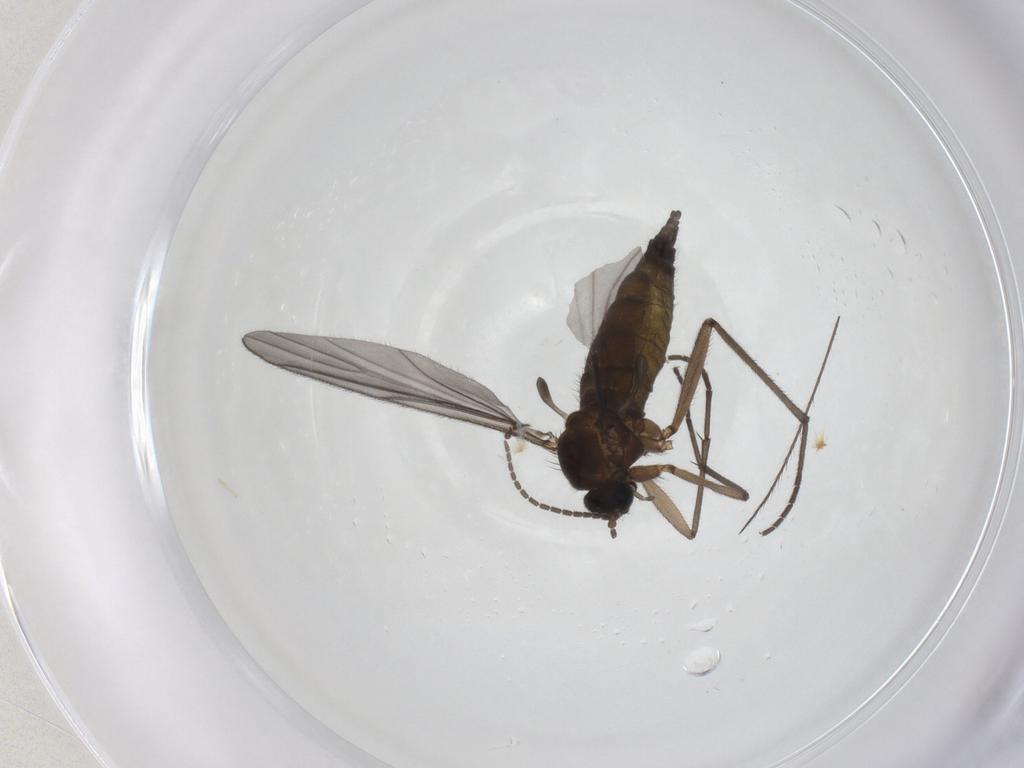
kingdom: Animalia
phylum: Arthropoda
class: Insecta
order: Diptera
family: Sciaridae
